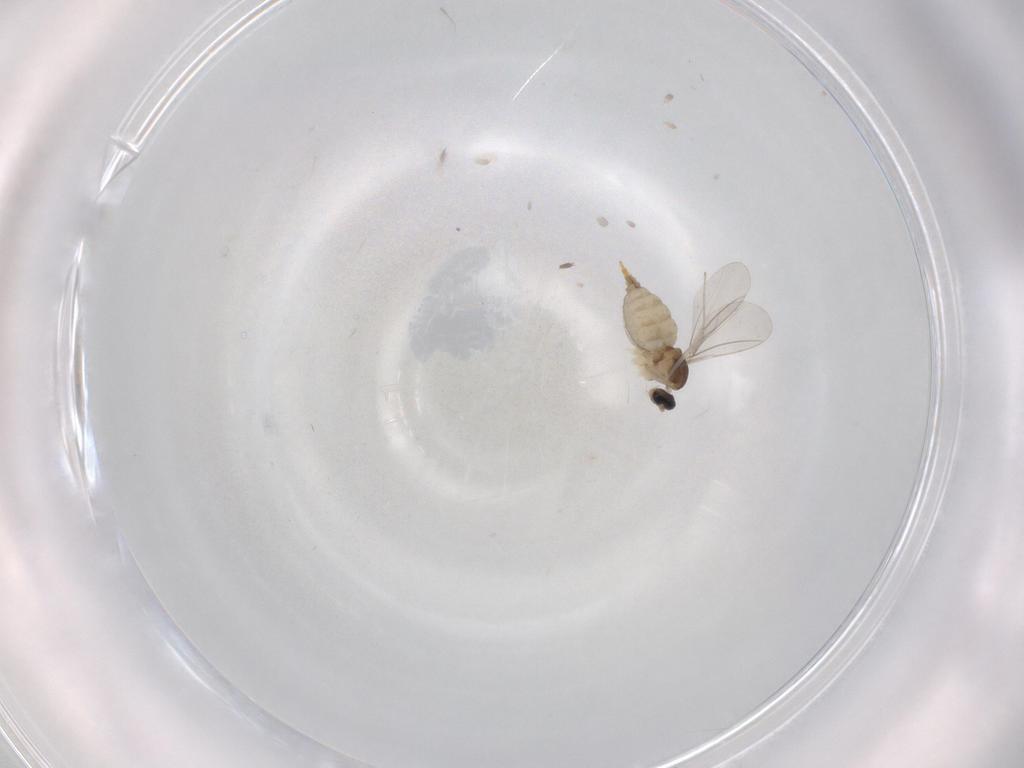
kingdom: Animalia
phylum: Arthropoda
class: Insecta
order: Diptera
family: Cecidomyiidae
